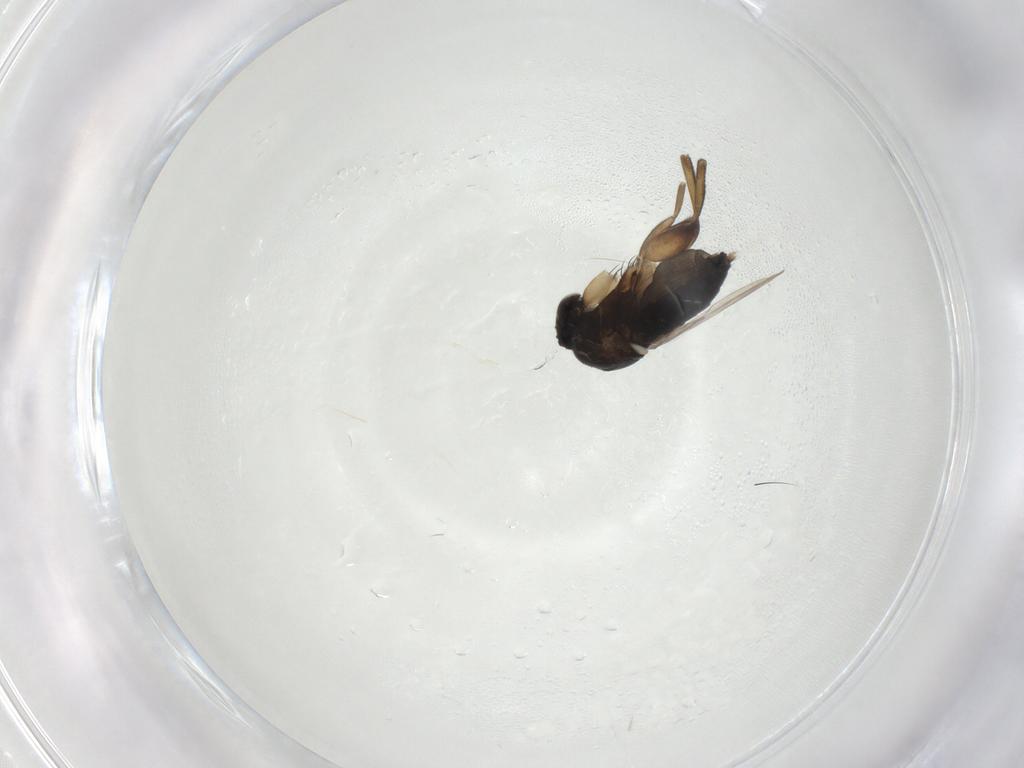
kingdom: Animalia
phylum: Arthropoda
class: Insecta
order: Diptera
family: Phoridae
